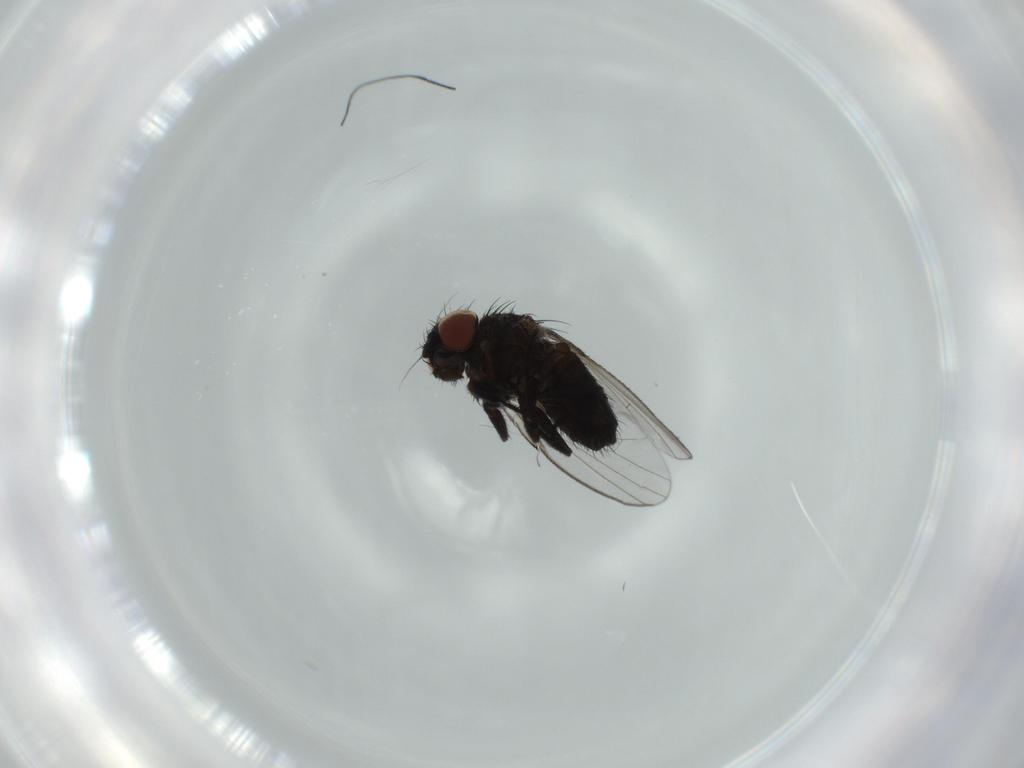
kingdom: Animalia
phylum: Arthropoda
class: Insecta
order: Diptera
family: Milichiidae
